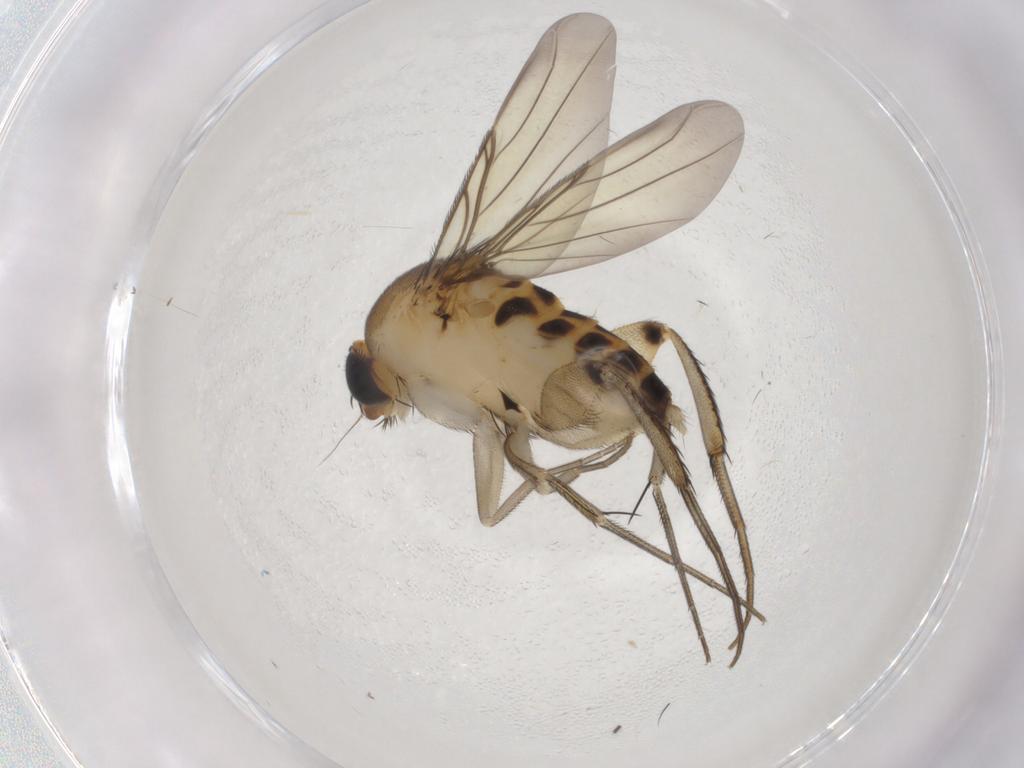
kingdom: Animalia
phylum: Arthropoda
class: Insecta
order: Diptera
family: Phoridae
